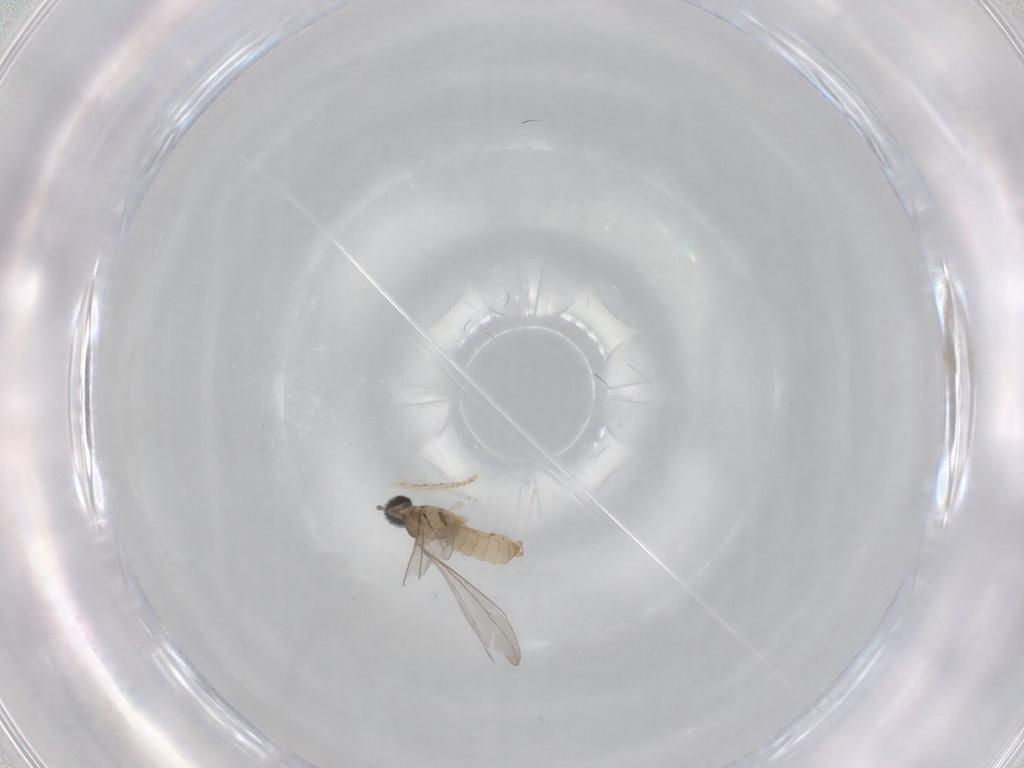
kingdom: Animalia
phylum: Arthropoda
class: Insecta
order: Diptera
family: Cecidomyiidae
